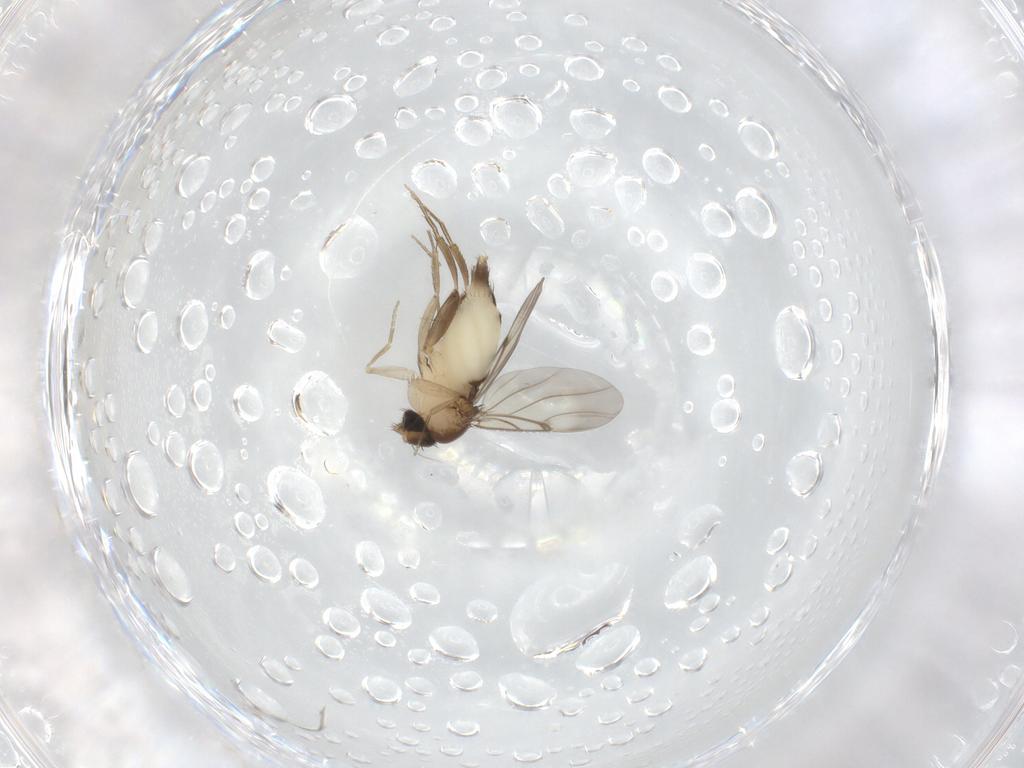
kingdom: Animalia
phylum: Arthropoda
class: Insecta
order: Diptera
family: Phoridae
